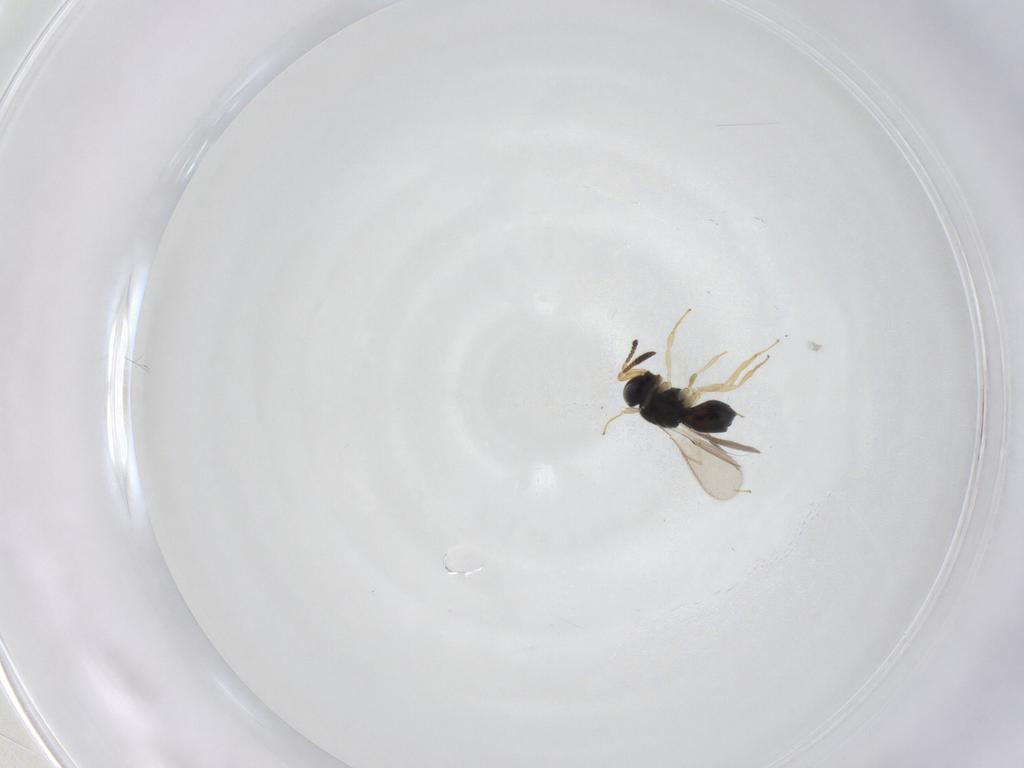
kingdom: Animalia
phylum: Arthropoda
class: Insecta
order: Hymenoptera
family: Scelionidae
